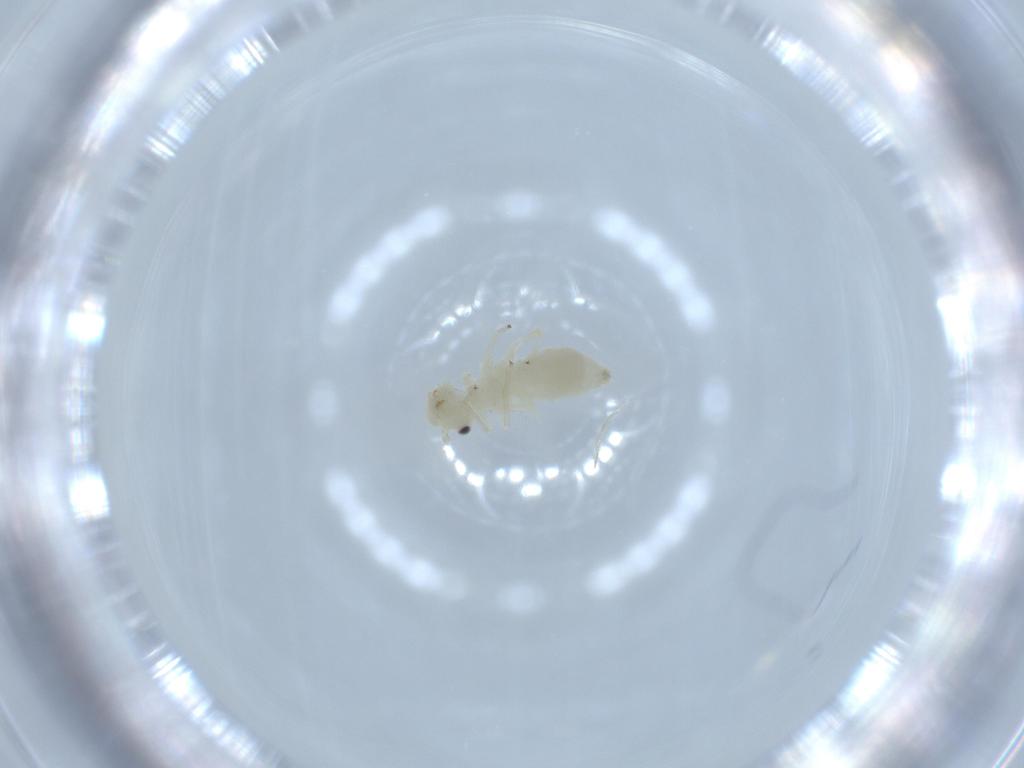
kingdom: Animalia
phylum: Arthropoda
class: Insecta
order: Psocodea
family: Caeciliusidae
